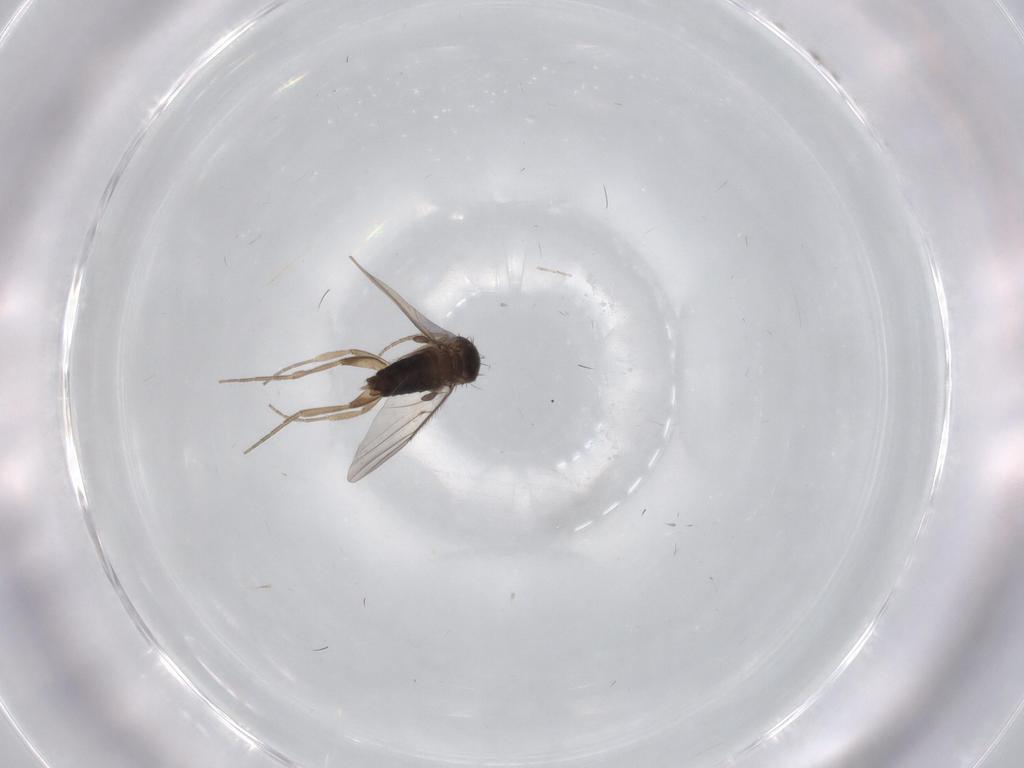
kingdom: Animalia
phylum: Arthropoda
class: Insecta
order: Diptera
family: Phoridae
